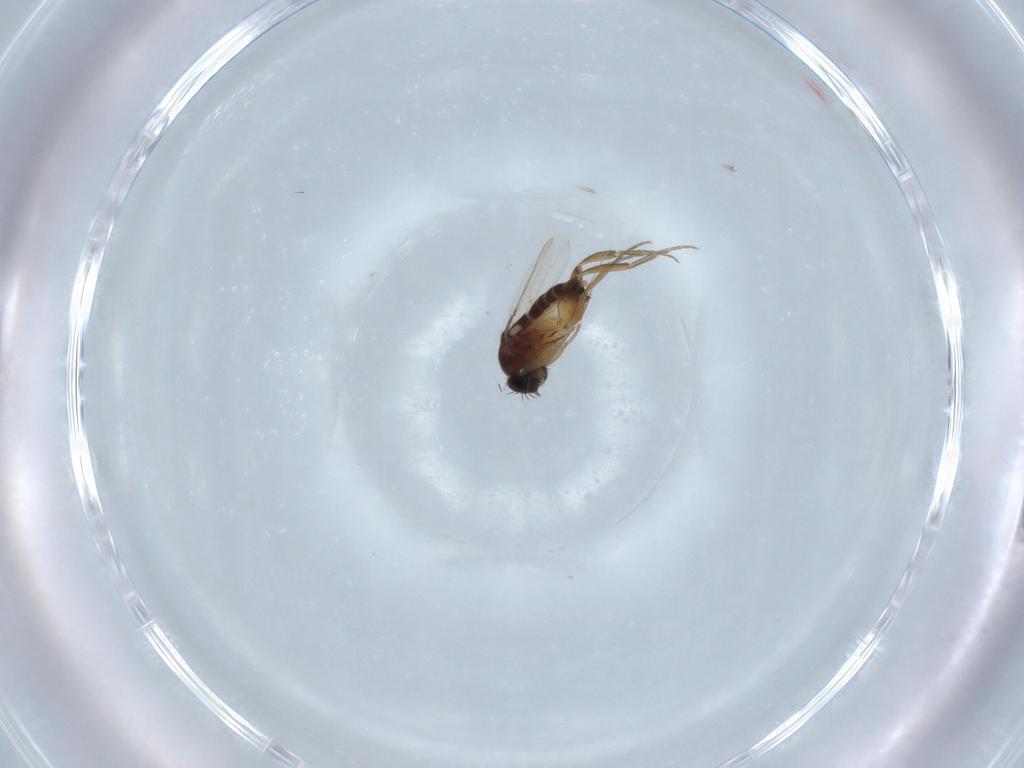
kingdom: Animalia
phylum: Arthropoda
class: Insecta
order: Diptera
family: Phoridae
